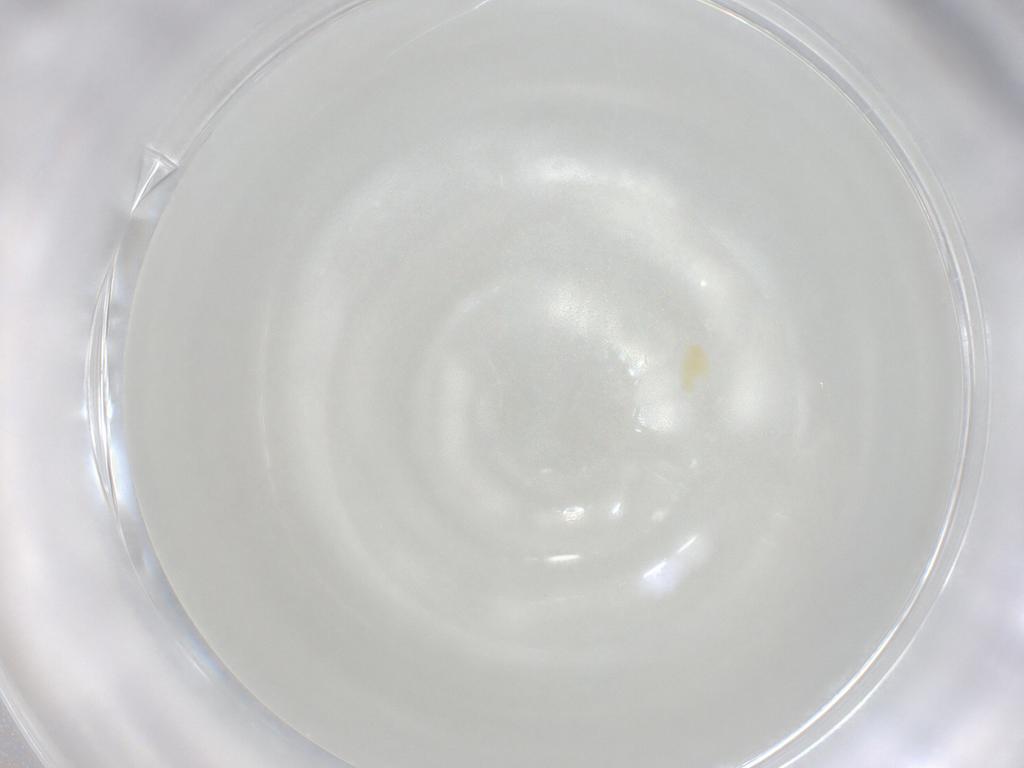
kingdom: Animalia
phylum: Arthropoda
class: Arachnida
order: Trombidiformes
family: Tetranychidae
